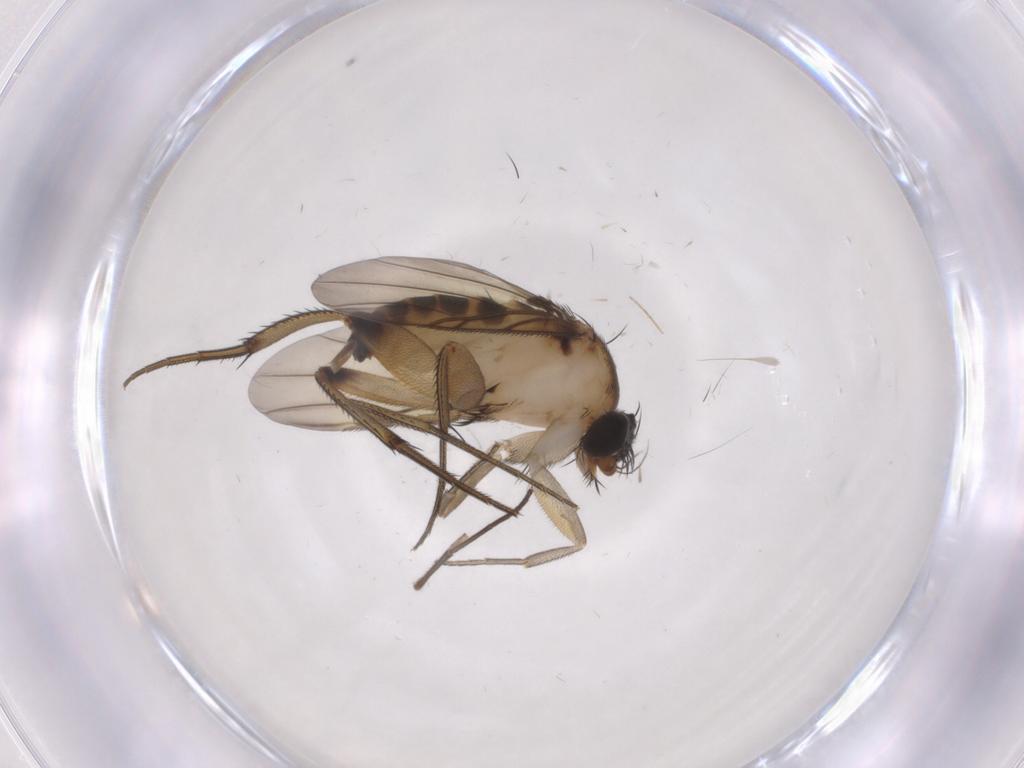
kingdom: Animalia
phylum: Arthropoda
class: Insecta
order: Diptera
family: Phoridae
